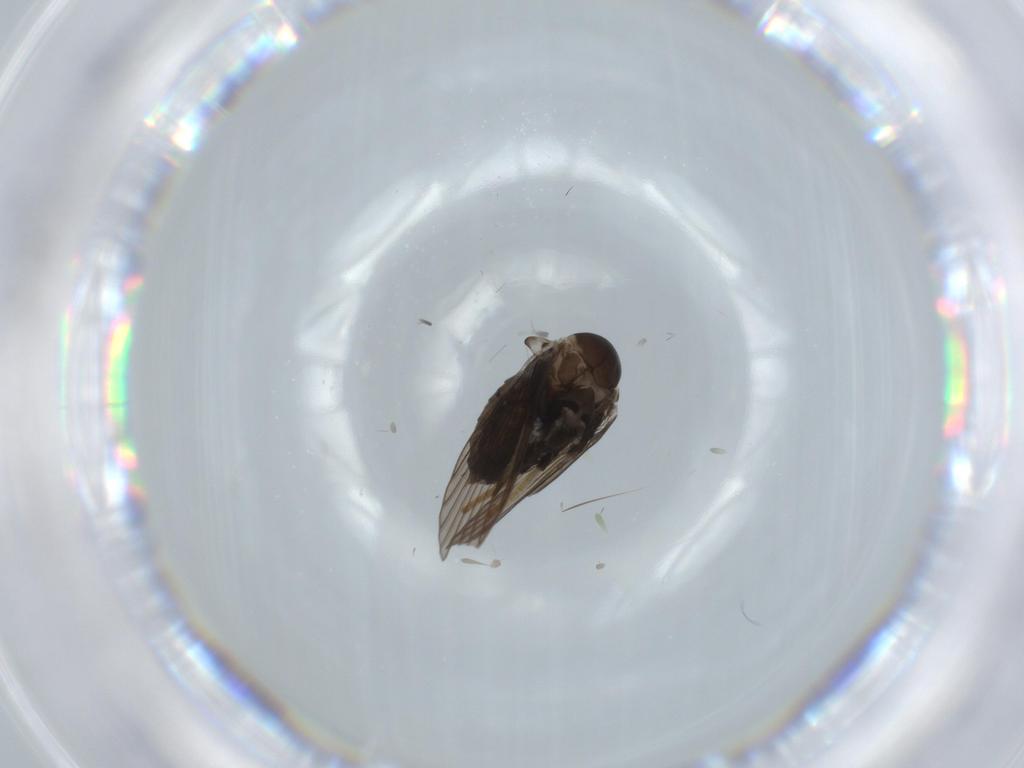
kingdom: Animalia
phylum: Arthropoda
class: Insecta
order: Diptera
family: Psychodidae
